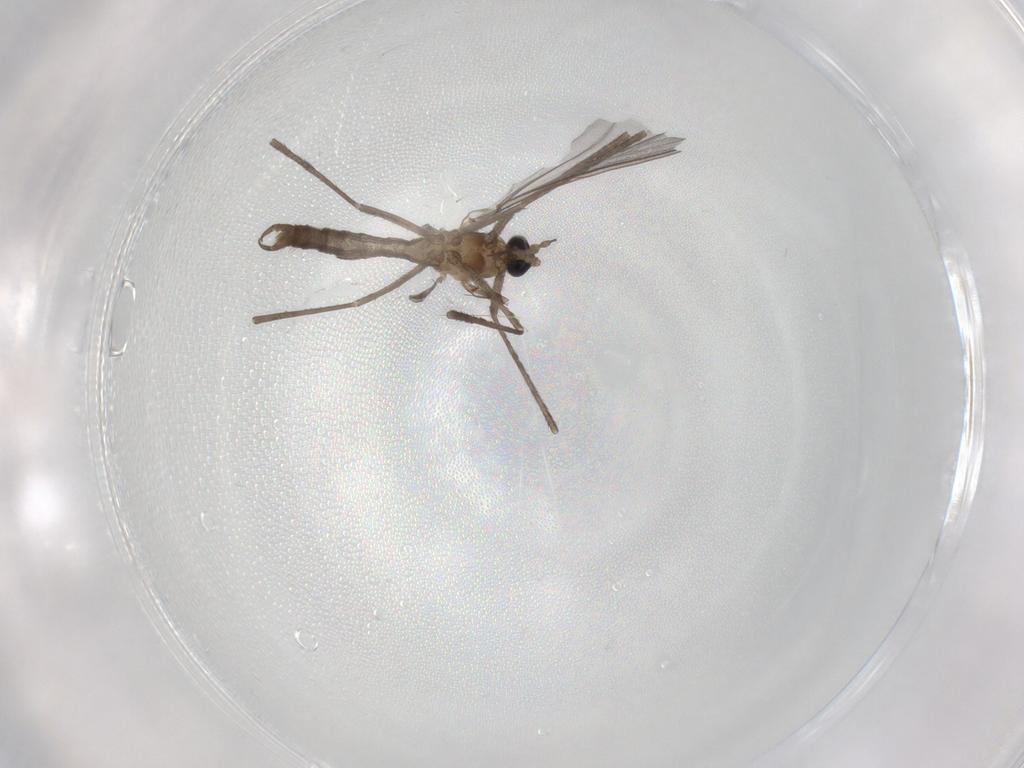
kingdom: Animalia
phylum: Arthropoda
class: Insecta
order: Diptera
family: Cecidomyiidae
